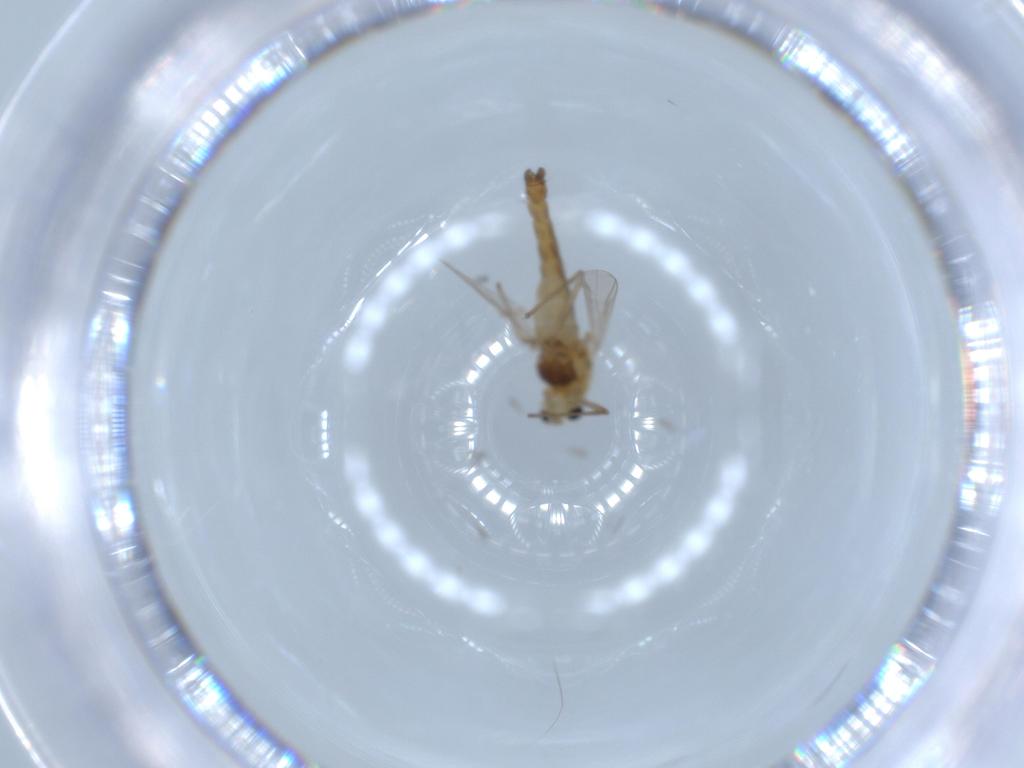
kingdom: Animalia
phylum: Arthropoda
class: Insecta
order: Diptera
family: Chironomidae
